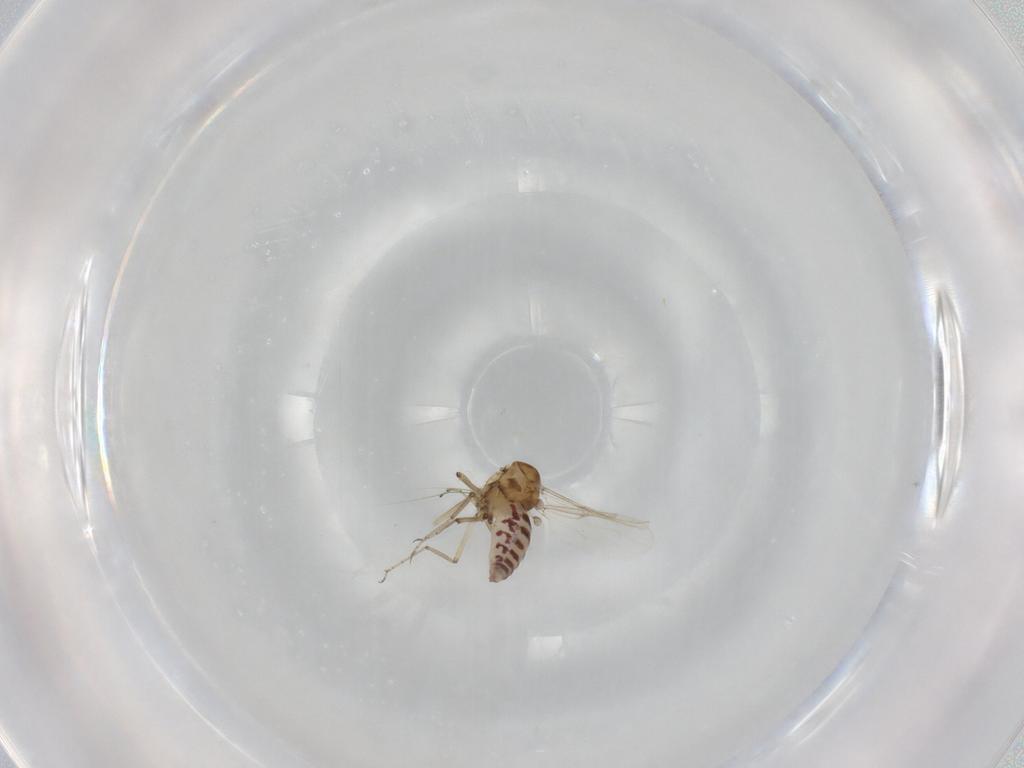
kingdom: Animalia
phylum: Arthropoda
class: Insecta
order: Diptera
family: Ceratopogonidae
